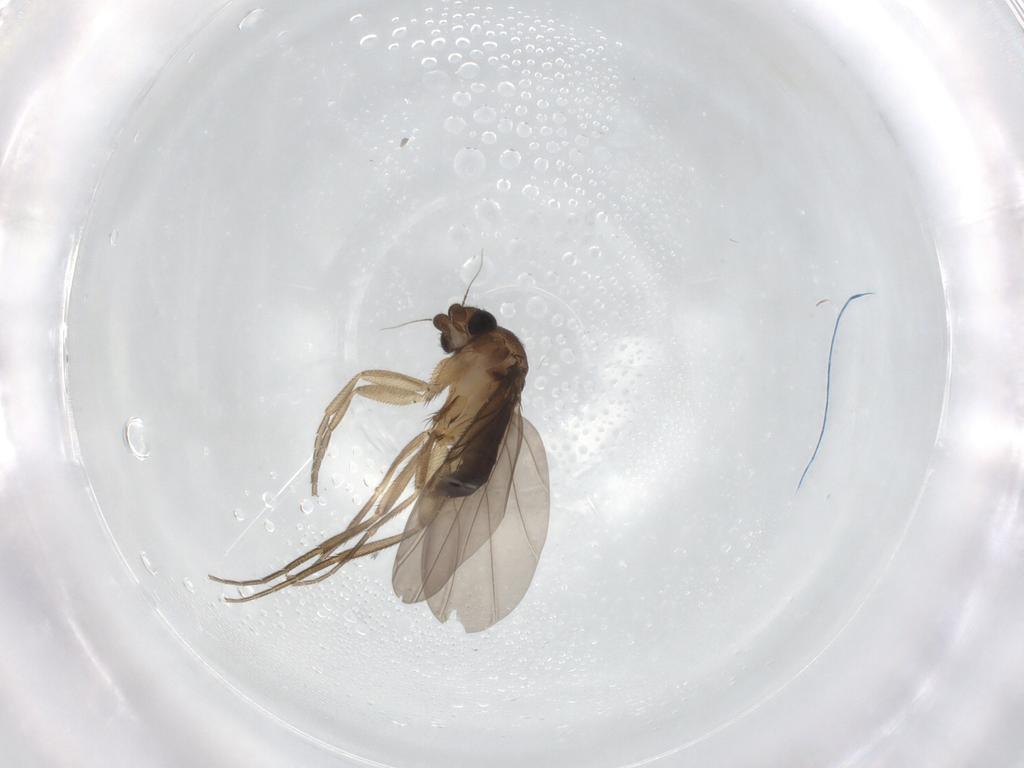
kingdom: Animalia
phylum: Arthropoda
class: Insecta
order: Diptera
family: Phoridae
